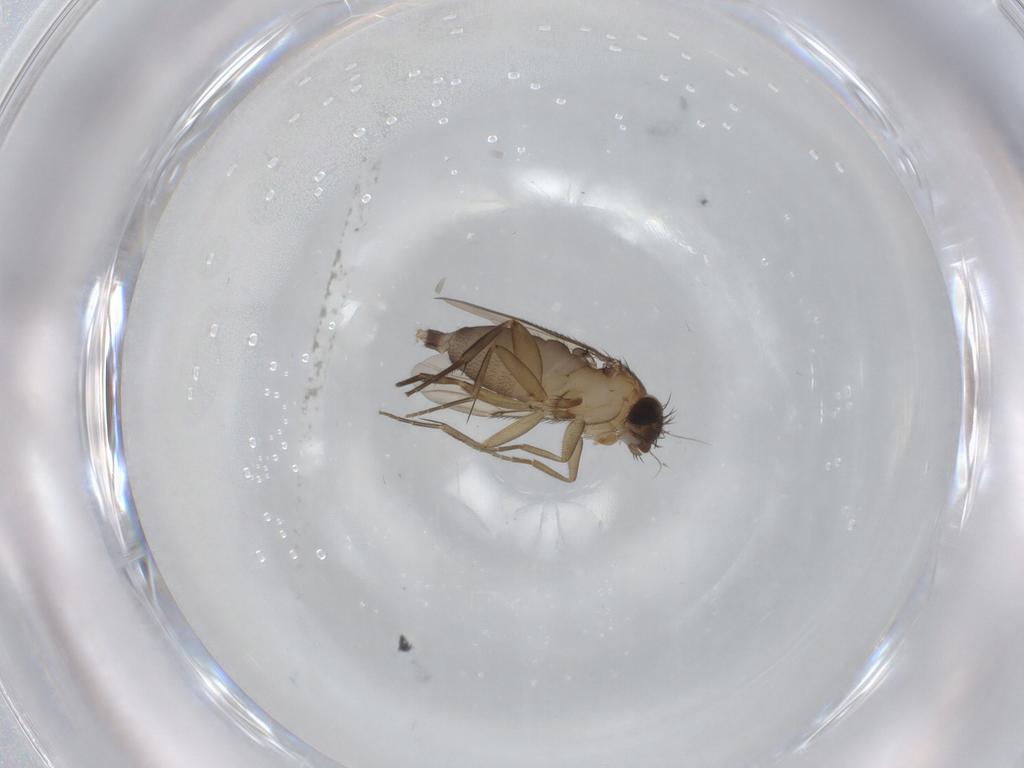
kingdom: Animalia
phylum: Arthropoda
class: Insecta
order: Diptera
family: Phoridae
